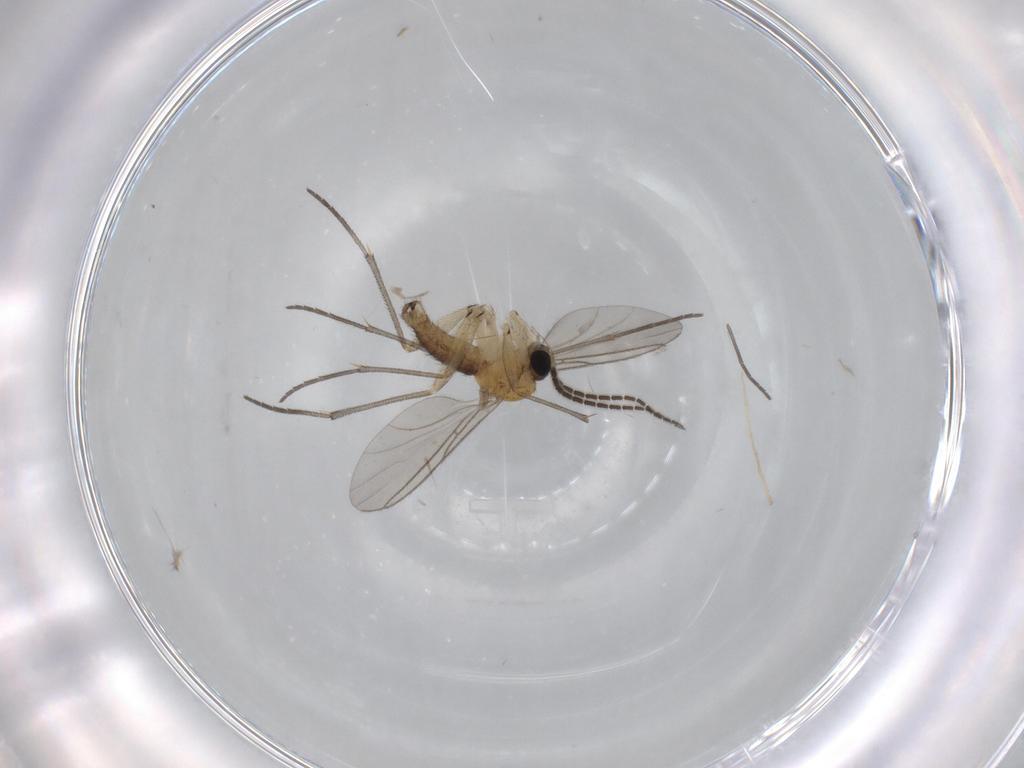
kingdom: Animalia
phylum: Arthropoda
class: Insecta
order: Diptera
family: Sciaridae
